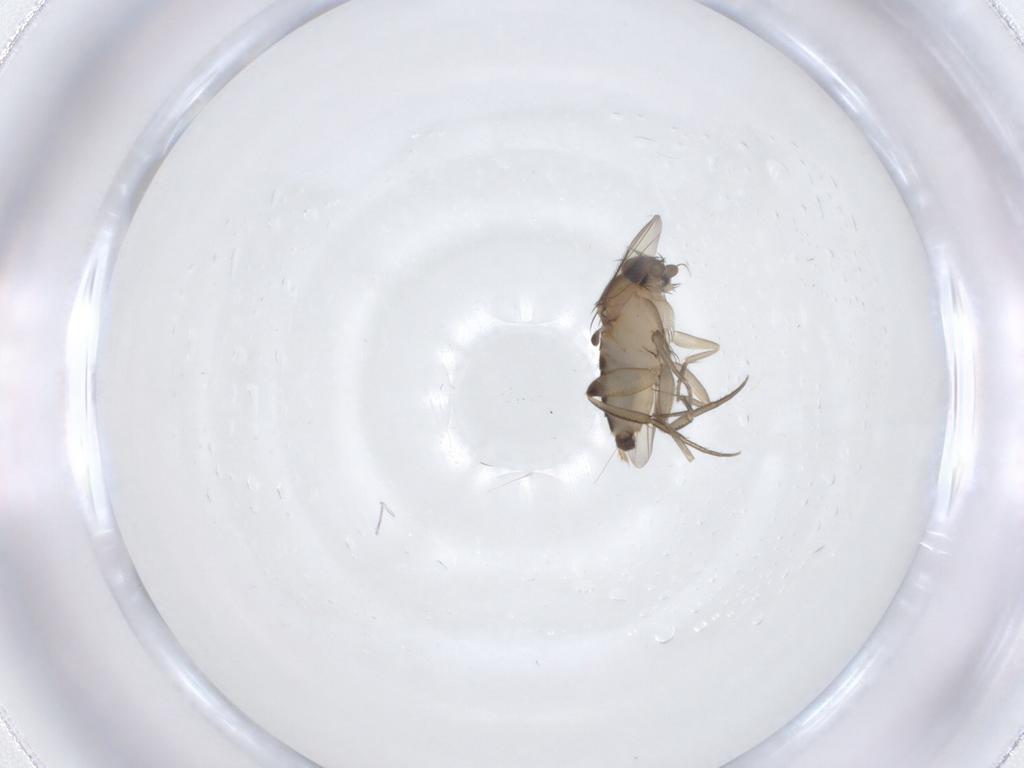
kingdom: Animalia
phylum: Arthropoda
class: Insecta
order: Diptera
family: Phoridae
